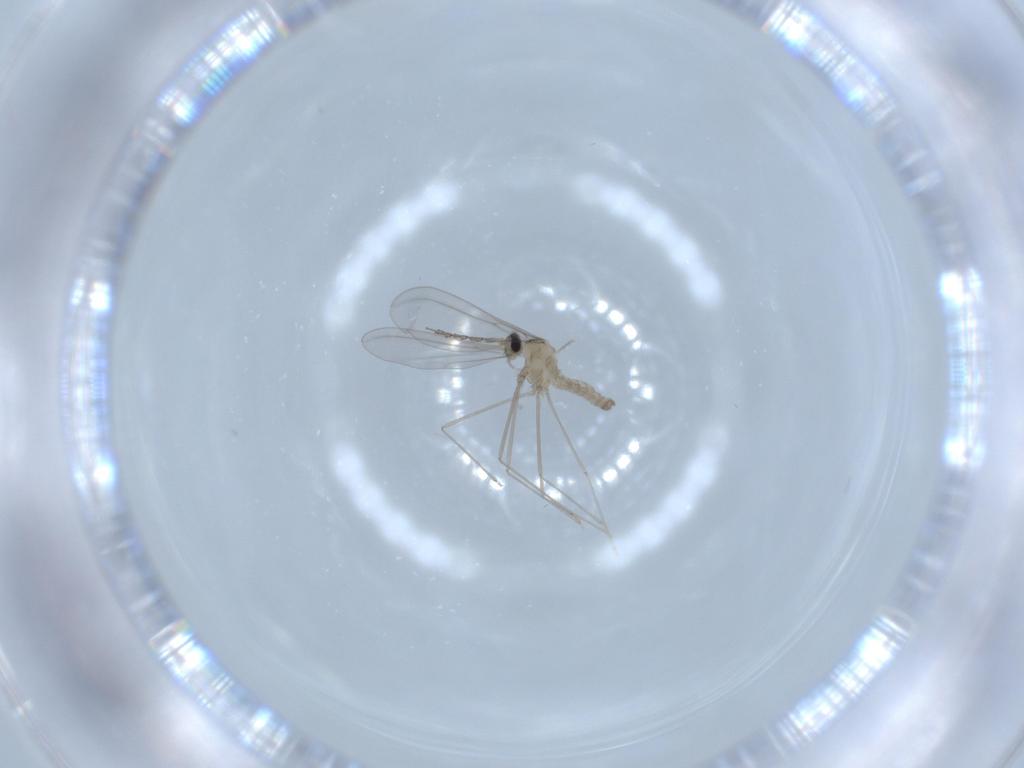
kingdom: Animalia
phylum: Arthropoda
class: Insecta
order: Diptera
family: Cecidomyiidae
